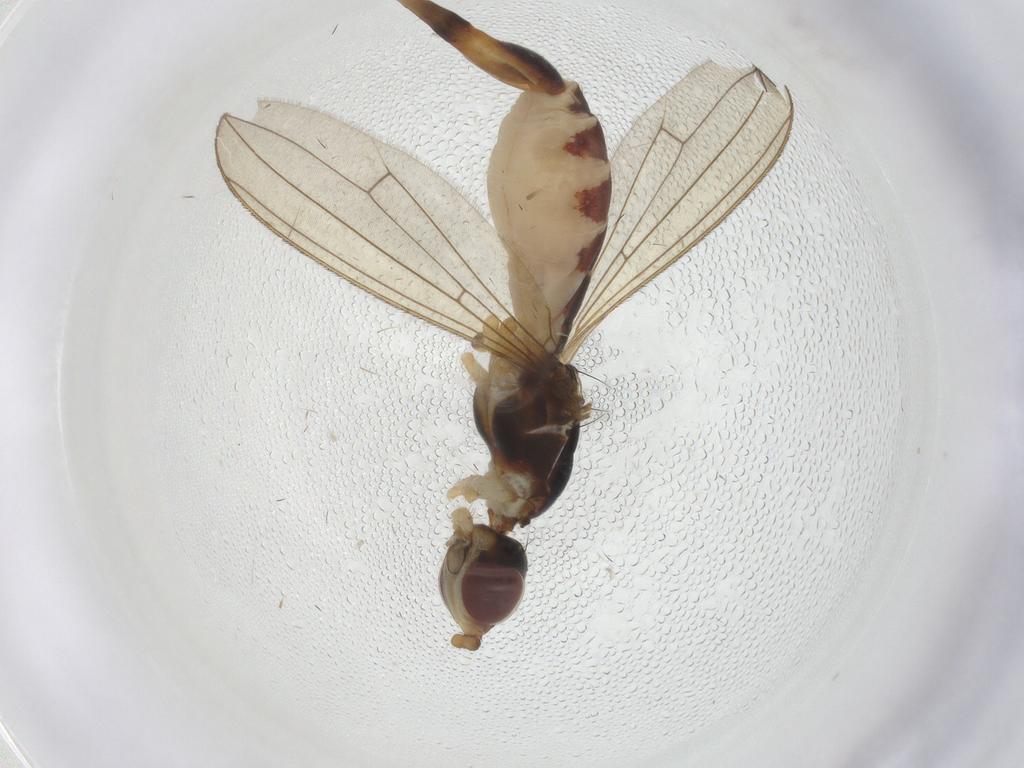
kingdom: Animalia
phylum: Arthropoda
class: Insecta
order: Diptera
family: Micropezidae
